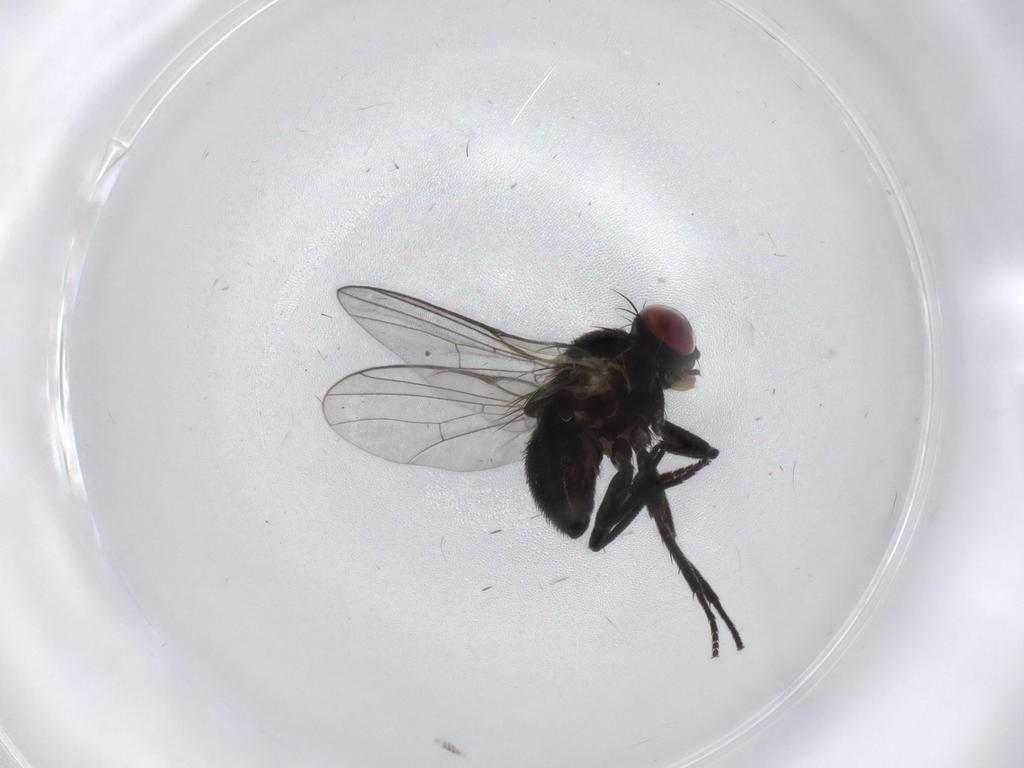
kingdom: Animalia
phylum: Arthropoda
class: Insecta
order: Diptera
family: Agromyzidae
